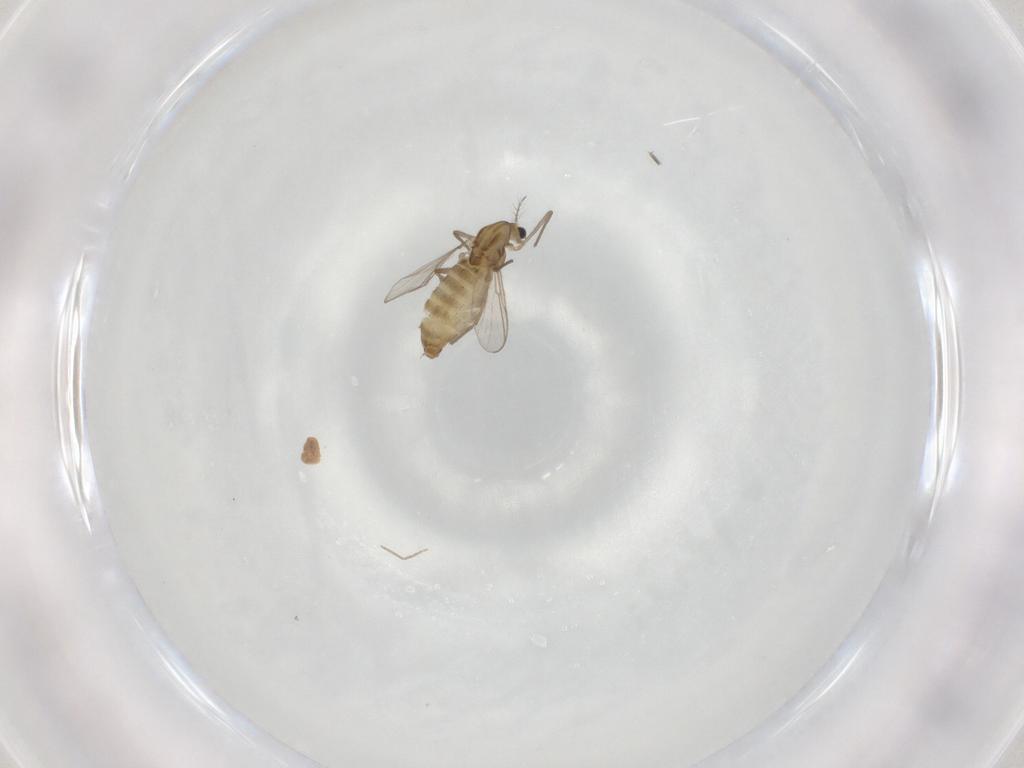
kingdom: Animalia
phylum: Arthropoda
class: Insecta
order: Diptera
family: Chironomidae
